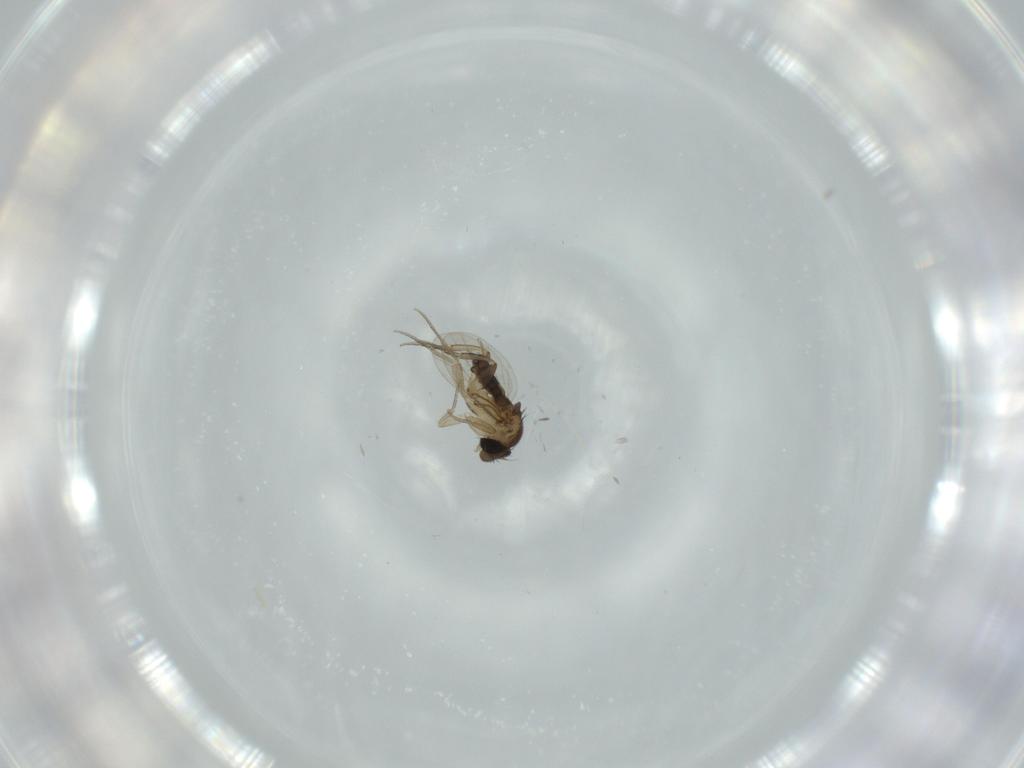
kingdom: Animalia
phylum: Arthropoda
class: Insecta
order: Diptera
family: Phoridae
